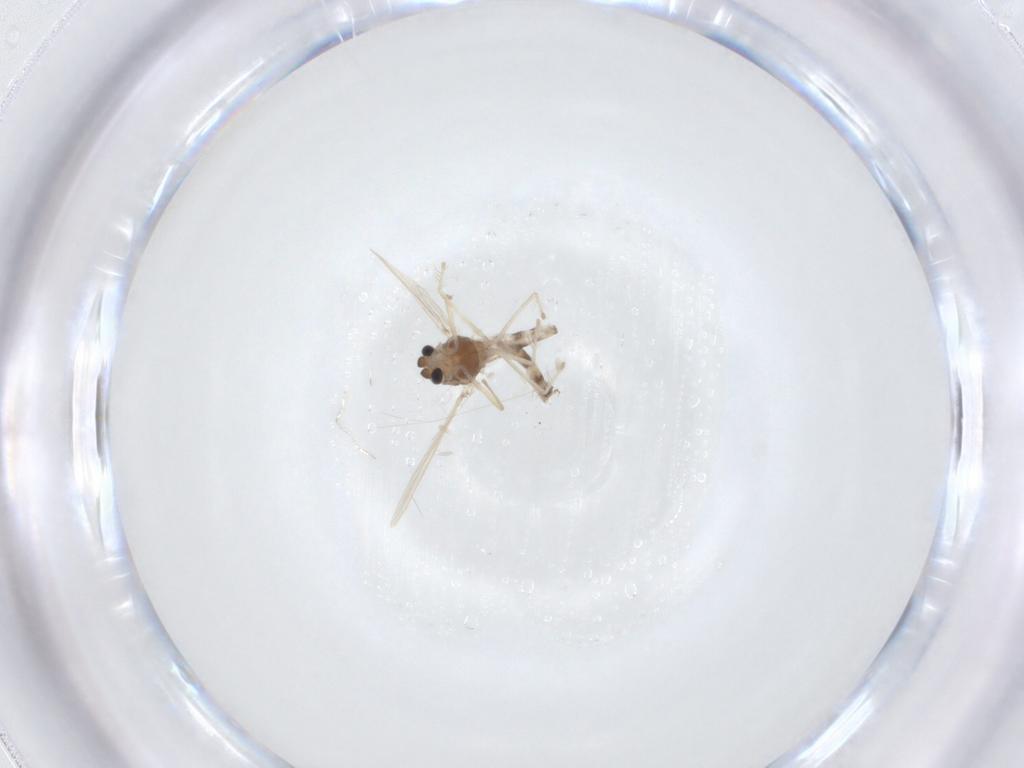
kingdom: Animalia
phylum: Arthropoda
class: Insecta
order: Diptera
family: Chironomidae
